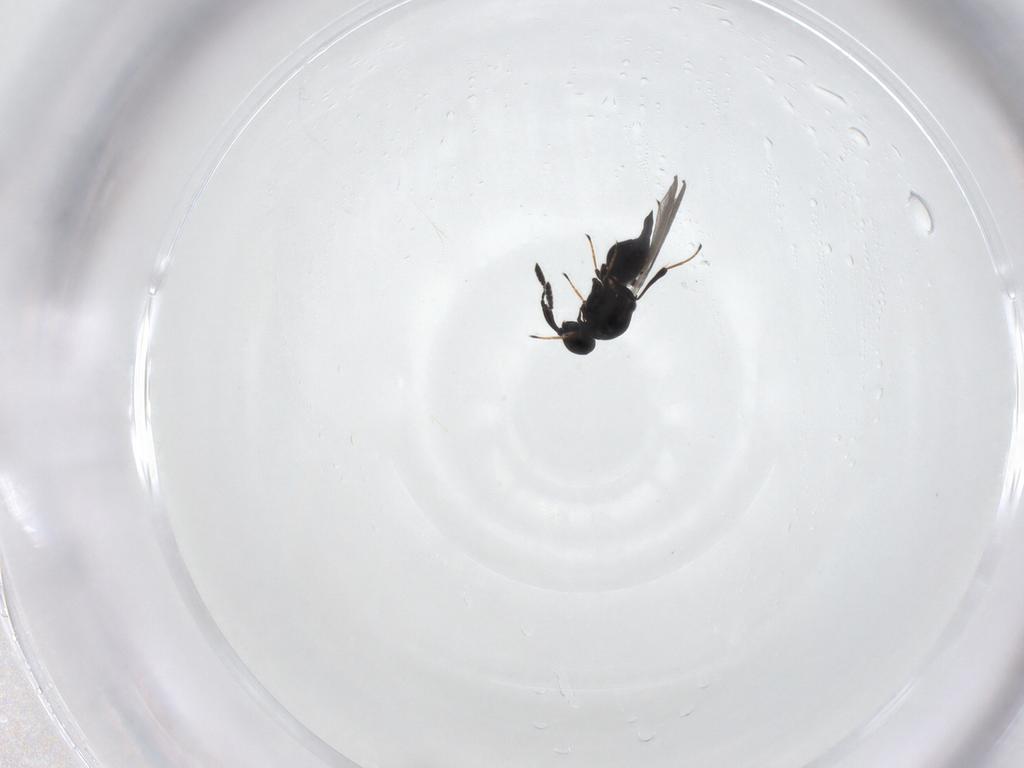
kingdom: Animalia
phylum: Arthropoda
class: Insecta
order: Hymenoptera
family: Platygastridae
